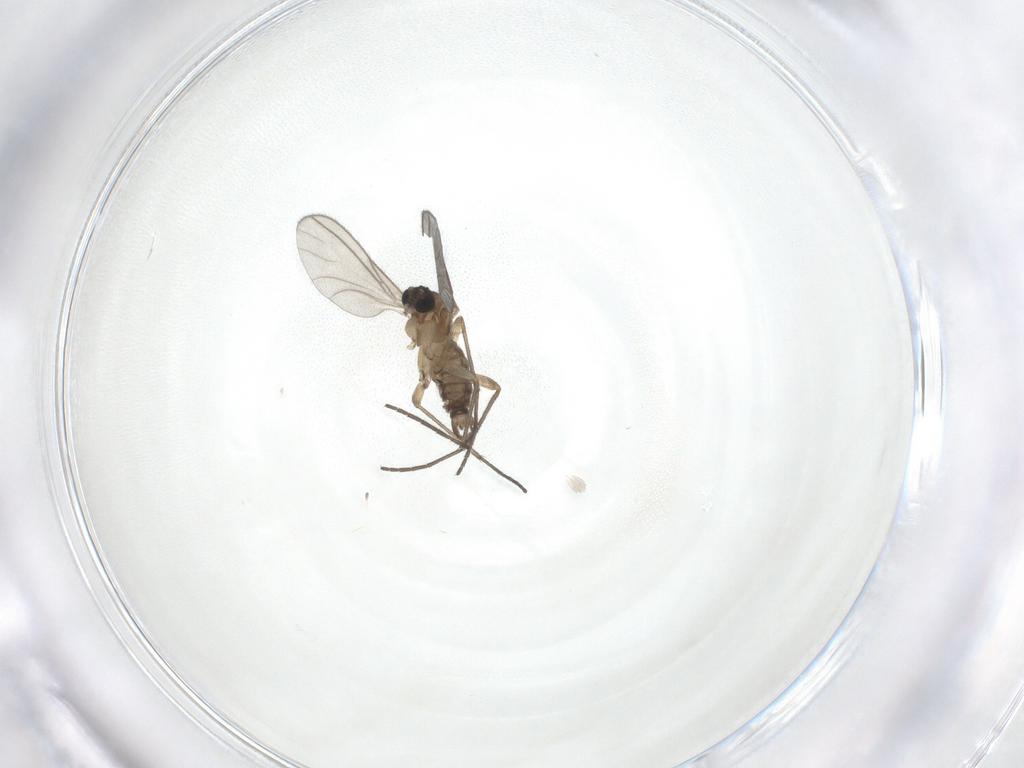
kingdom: Animalia
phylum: Arthropoda
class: Insecta
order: Diptera
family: Sciaridae
